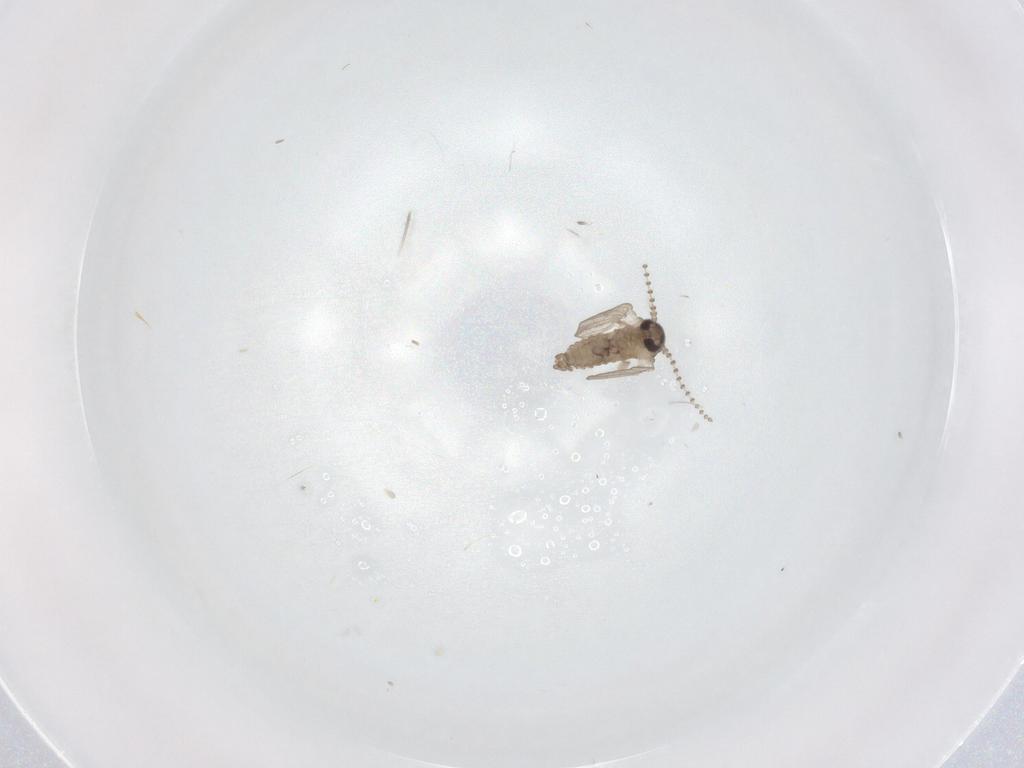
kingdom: Animalia
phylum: Arthropoda
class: Insecta
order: Diptera
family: Psychodidae
